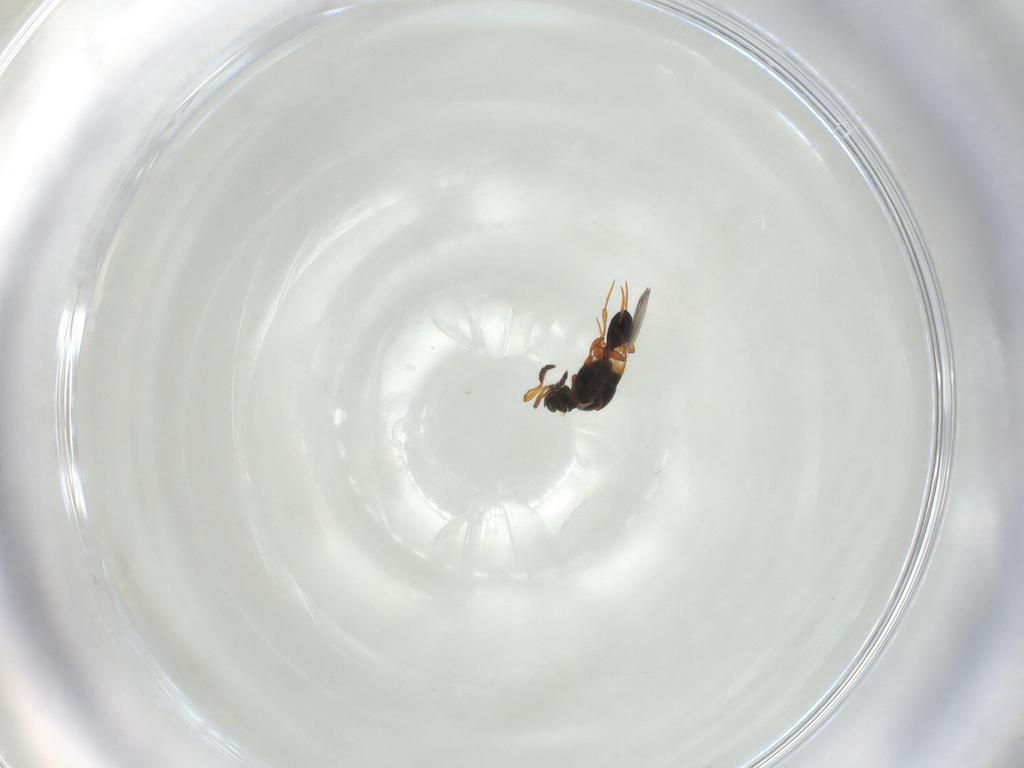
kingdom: Animalia
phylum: Arthropoda
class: Insecta
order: Hymenoptera
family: Platygastridae
